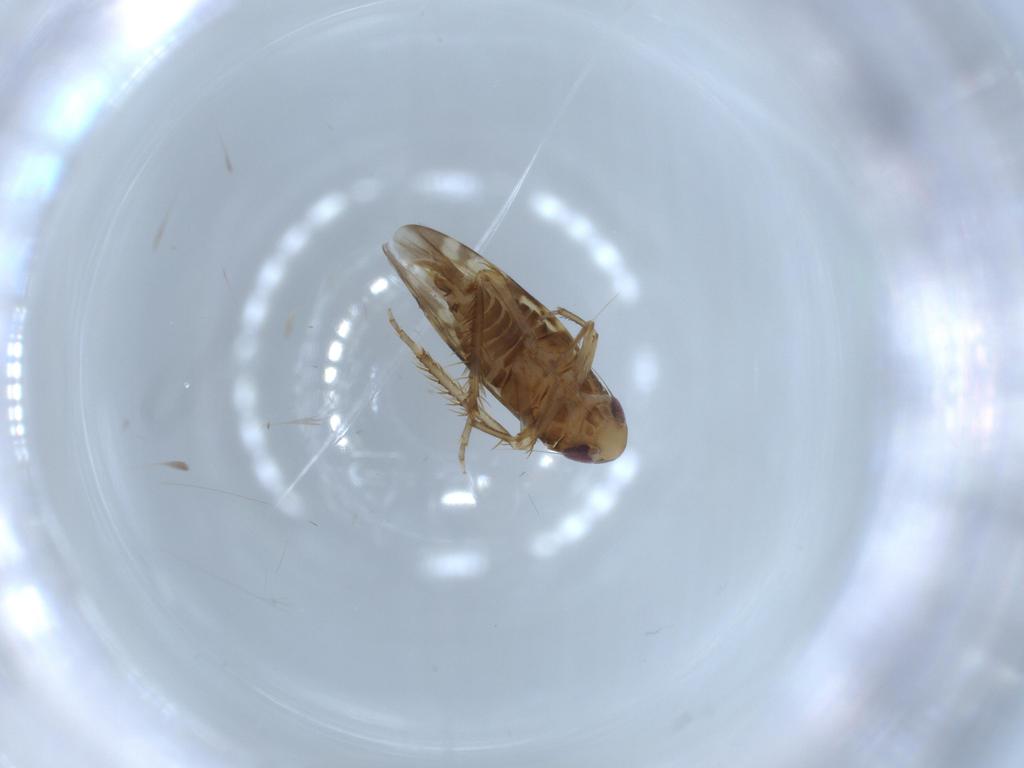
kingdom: Animalia
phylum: Arthropoda
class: Insecta
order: Hemiptera
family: Cicadellidae
